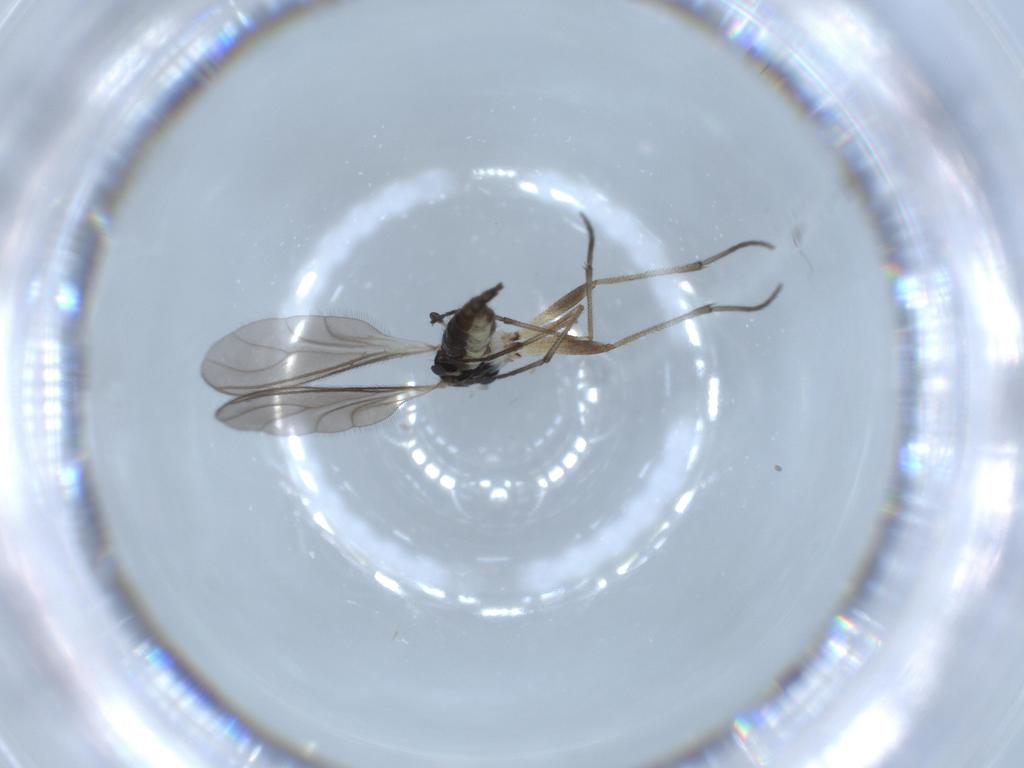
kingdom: Animalia
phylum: Arthropoda
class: Insecta
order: Diptera
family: Sciaridae
